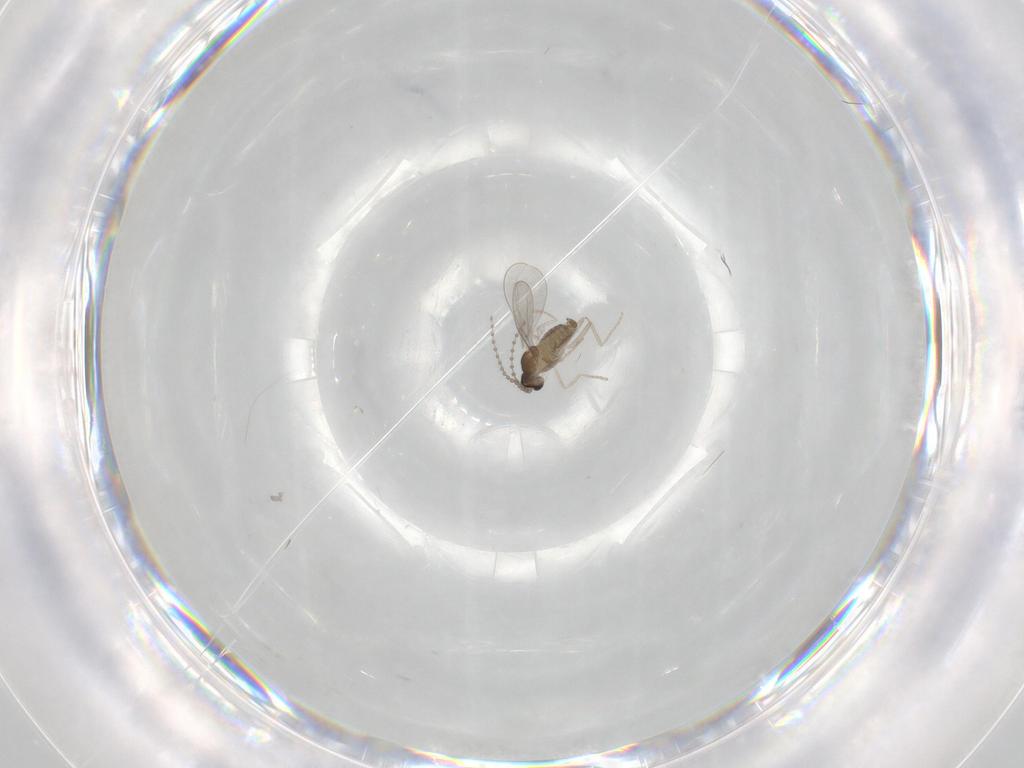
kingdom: Animalia
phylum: Arthropoda
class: Insecta
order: Diptera
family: Cecidomyiidae
